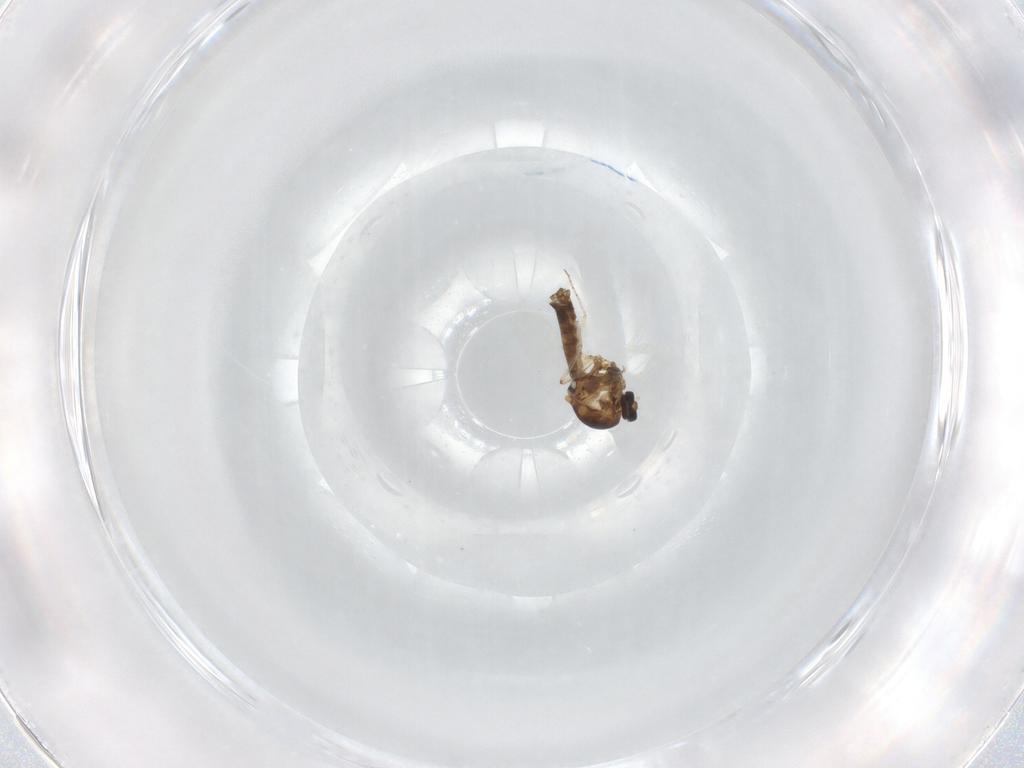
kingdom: Animalia
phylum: Arthropoda
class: Insecta
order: Diptera
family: Ceratopogonidae
